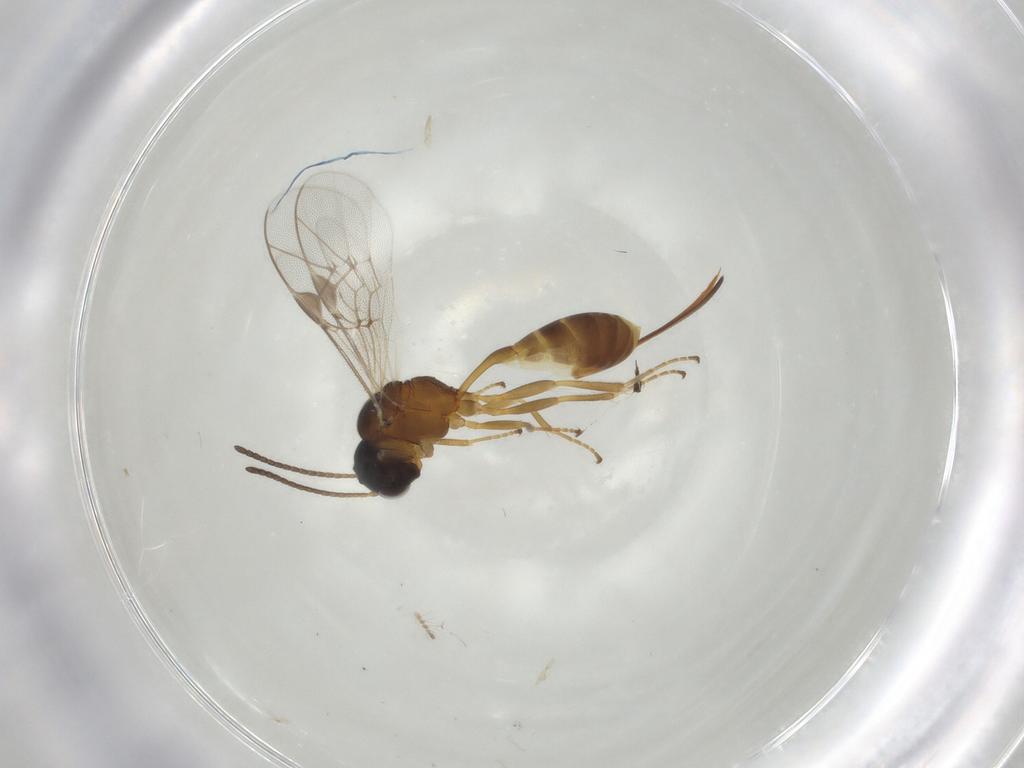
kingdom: Animalia
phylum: Arthropoda
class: Insecta
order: Hymenoptera
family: Ichneumonidae
